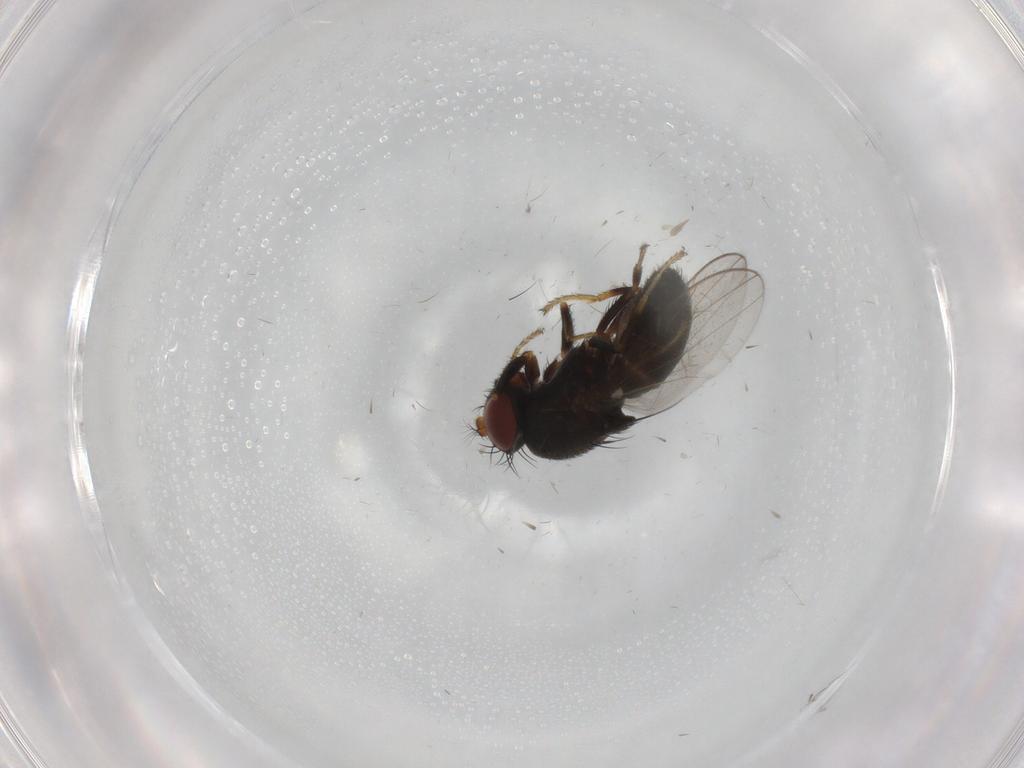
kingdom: Animalia
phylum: Arthropoda
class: Insecta
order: Diptera
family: Ephydridae
